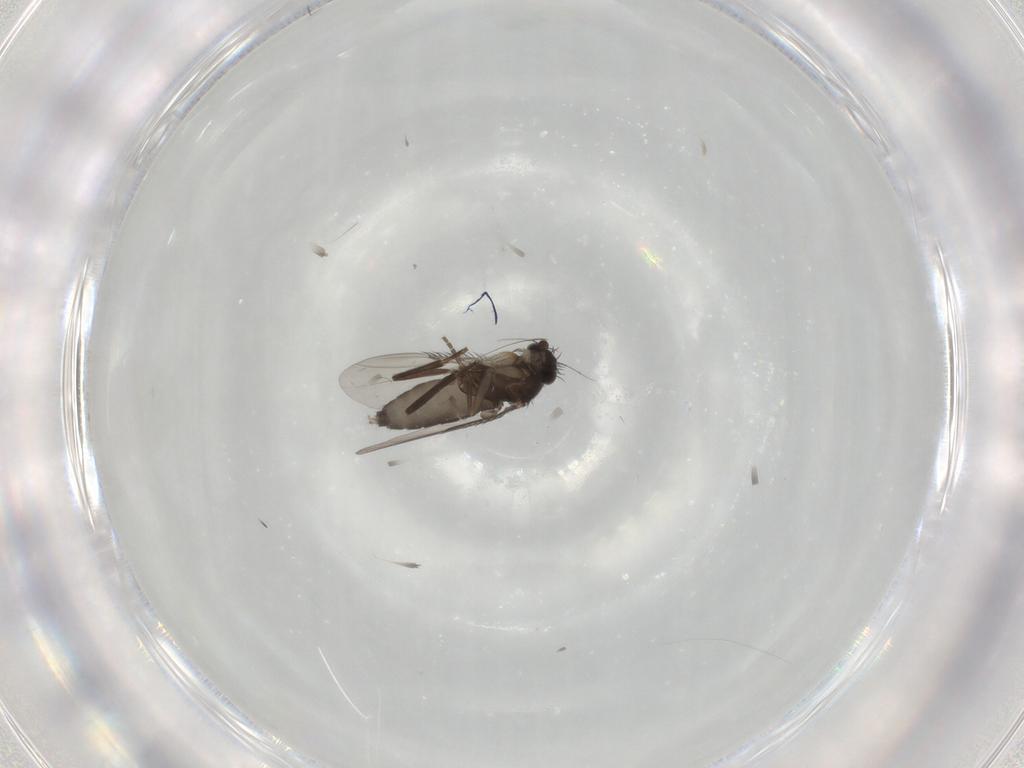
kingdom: Animalia
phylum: Arthropoda
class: Insecta
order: Diptera
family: Phoridae
